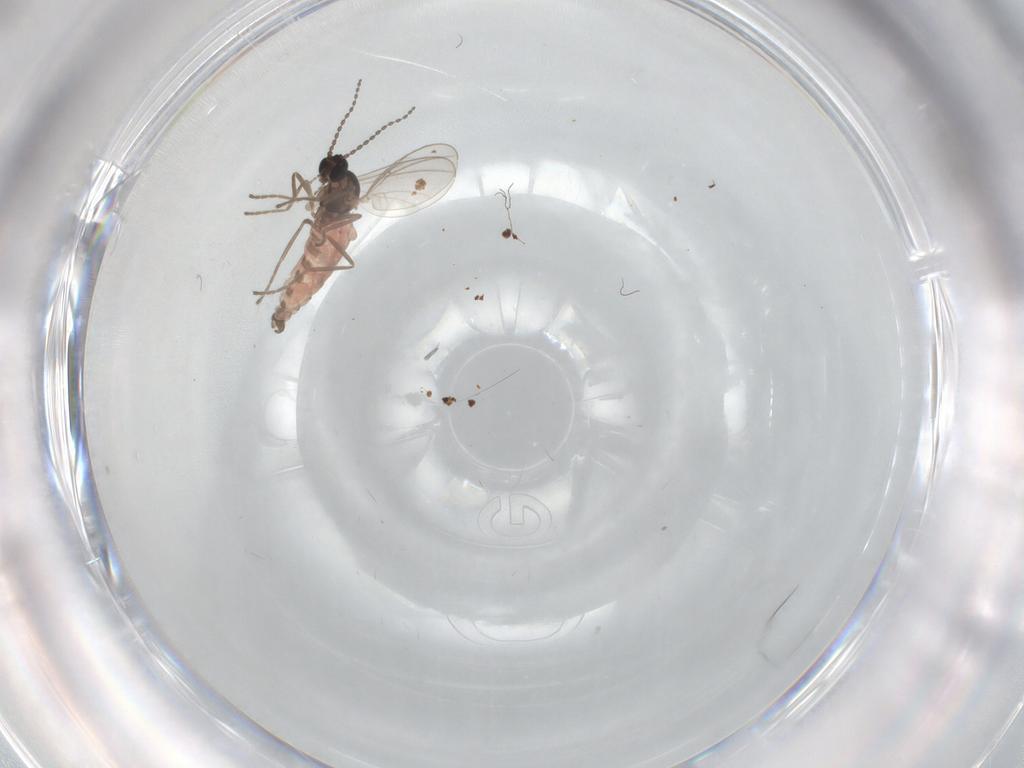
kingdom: Animalia
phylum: Arthropoda
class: Insecta
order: Diptera
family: Cecidomyiidae
